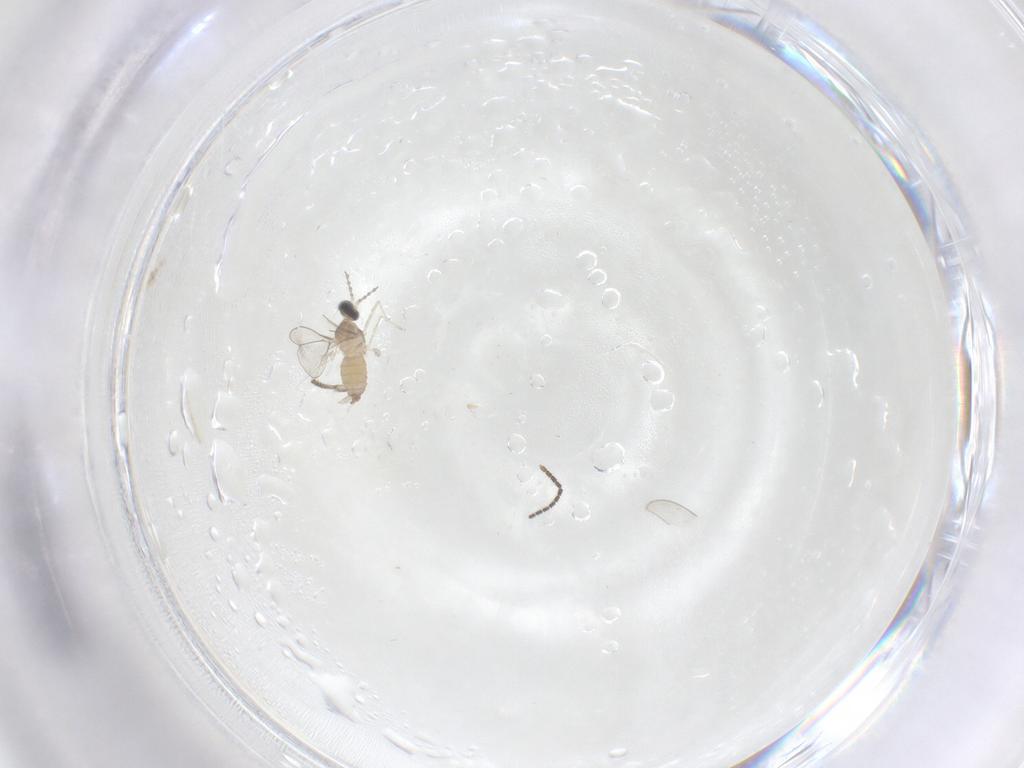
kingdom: Animalia
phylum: Arthropoda
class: Insecta
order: Diptera
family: Cecidomyiidae
